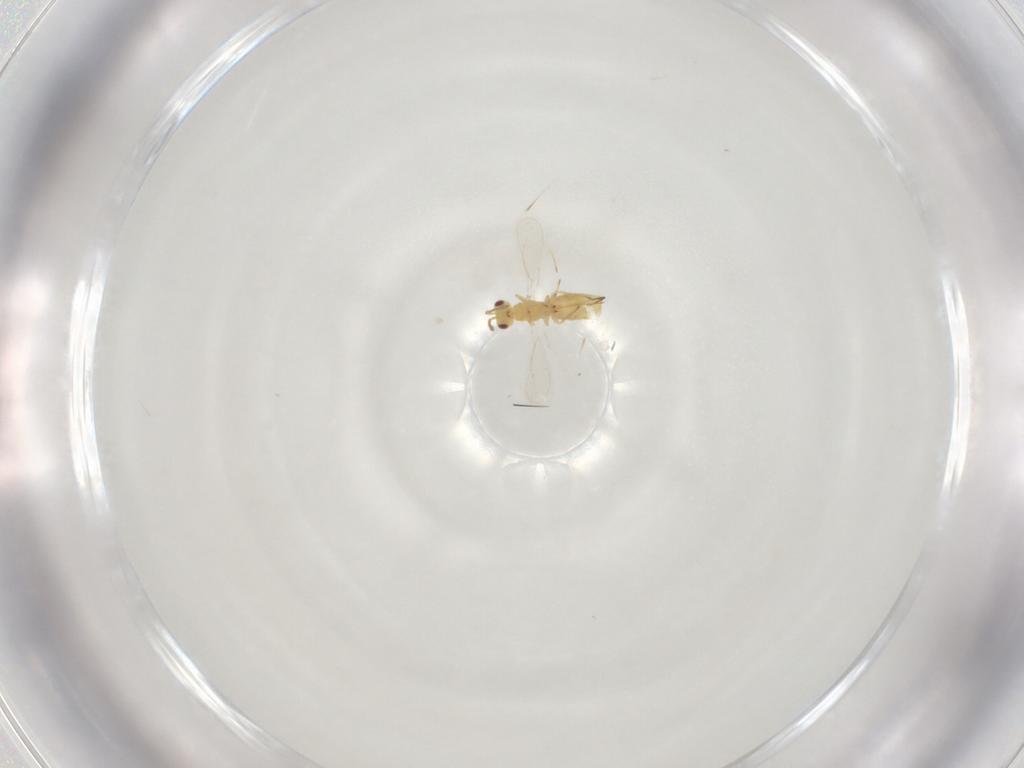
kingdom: Animalia
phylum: Arthropoda
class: Insecta
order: Hymenoptera
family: Eulophidae
